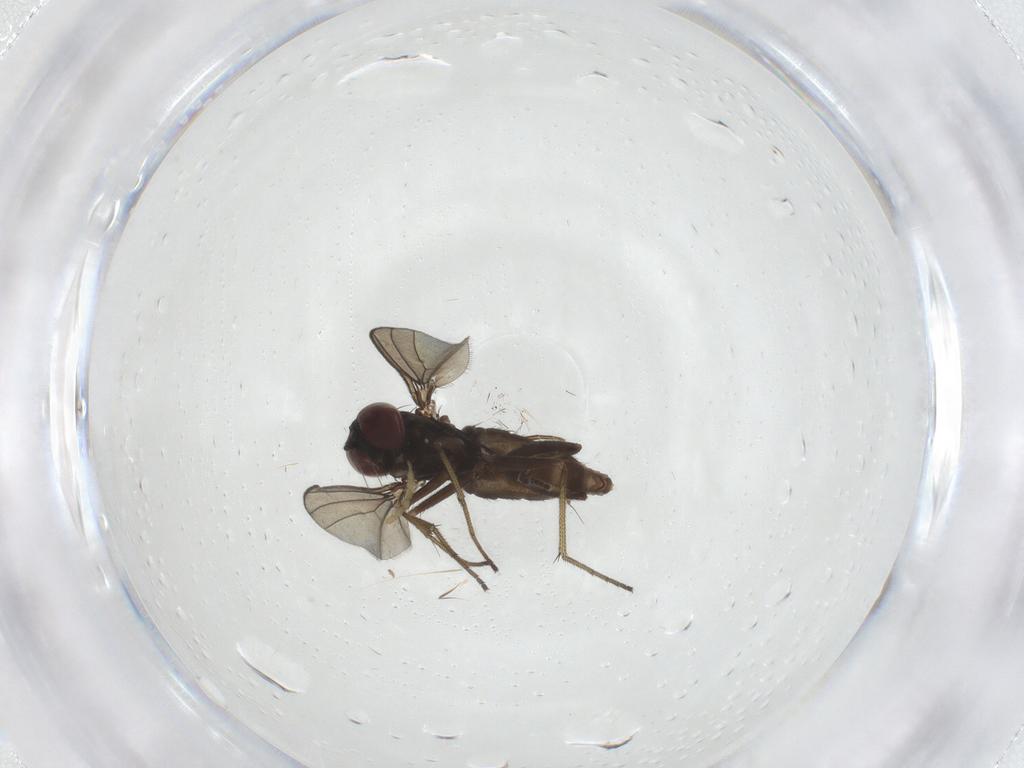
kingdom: Animalia
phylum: Arthropoda
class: Insecta
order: Diptera
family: Dolichopodidae
